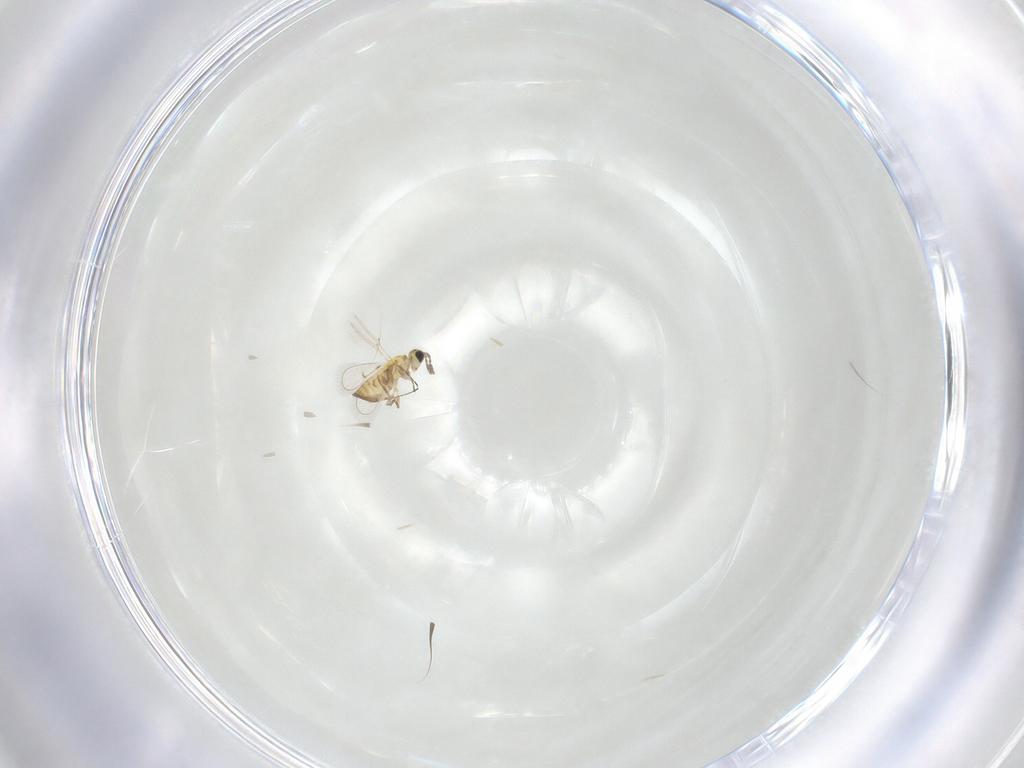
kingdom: Animalia
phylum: Arthropoda
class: Insecta
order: Hymenoptera
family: Trichogrammatidae
